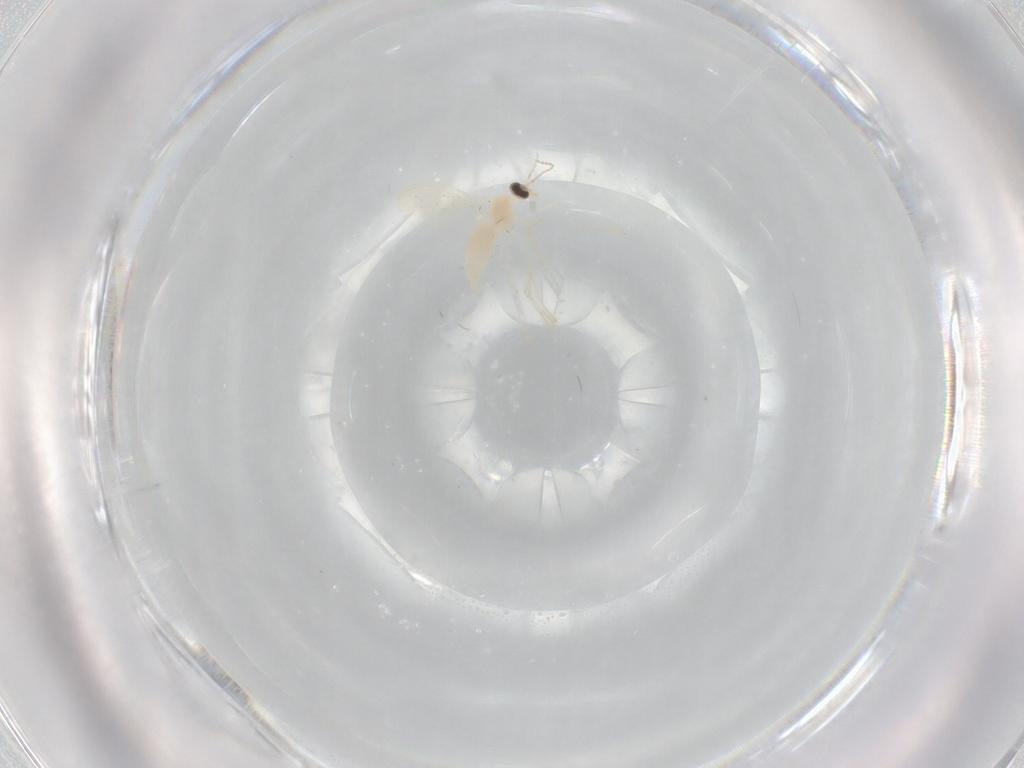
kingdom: Animalia
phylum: Arthropoda
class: Insecta
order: Diptera
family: Cecidomyiidae
